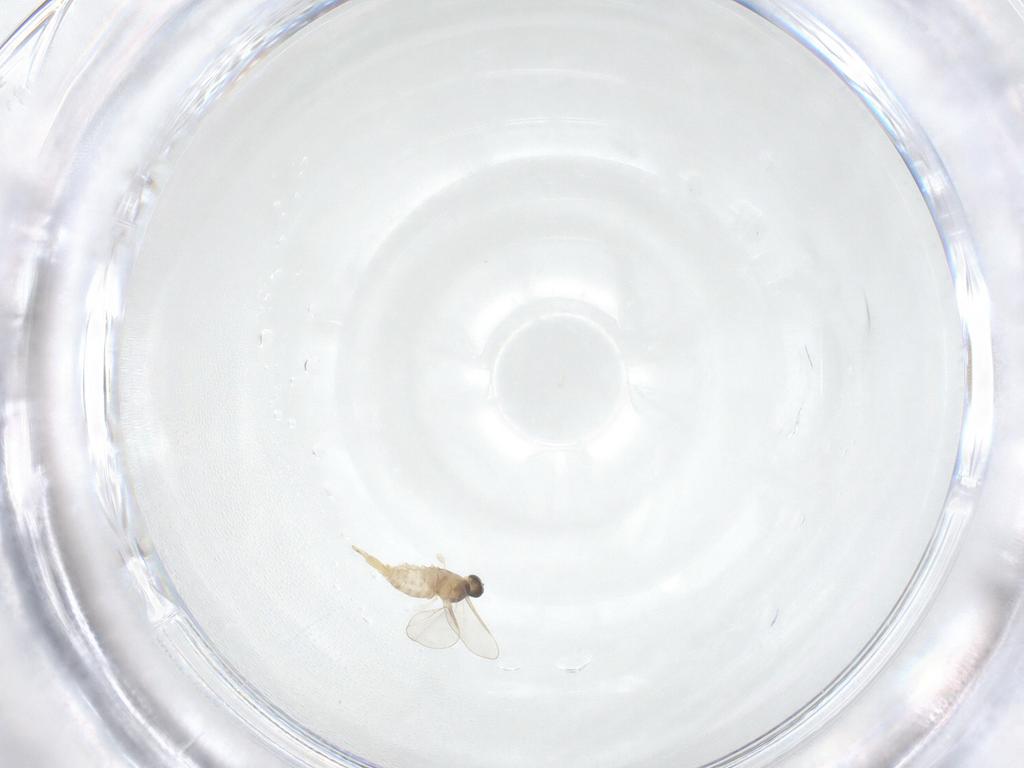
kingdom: Animalia
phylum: Arthropoda
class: Insecta
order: Diptera
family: Cecidomyiidae
